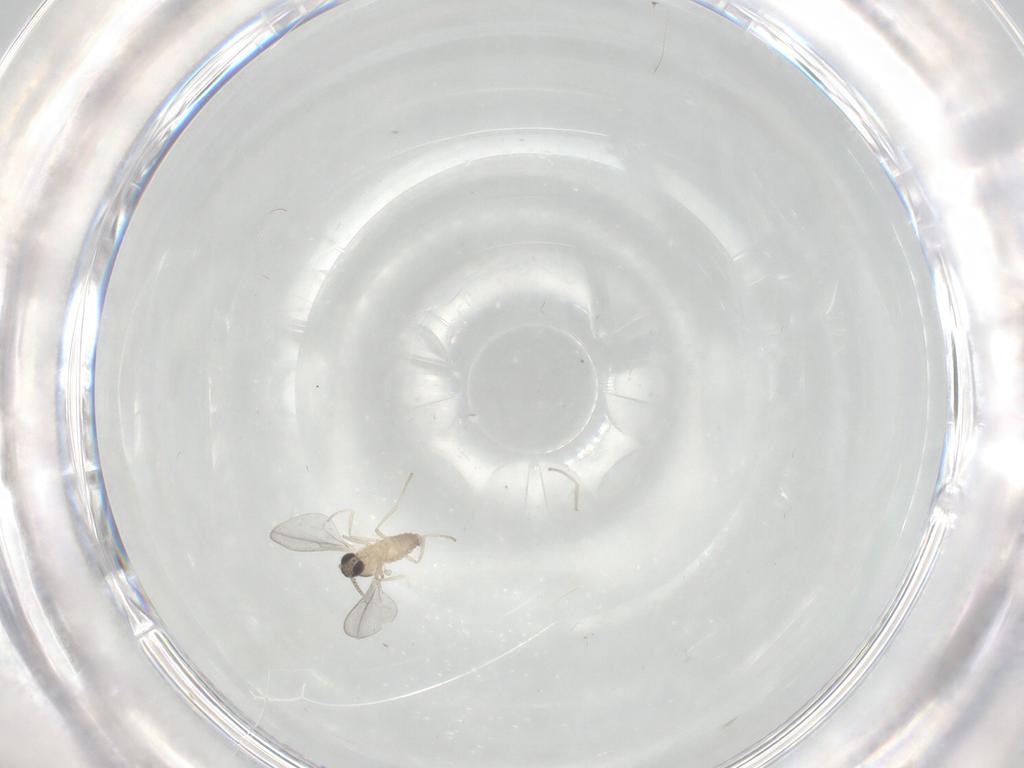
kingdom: Animalia
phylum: Arthropoda
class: Insecta
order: Diptera
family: Cecidomyiidae
